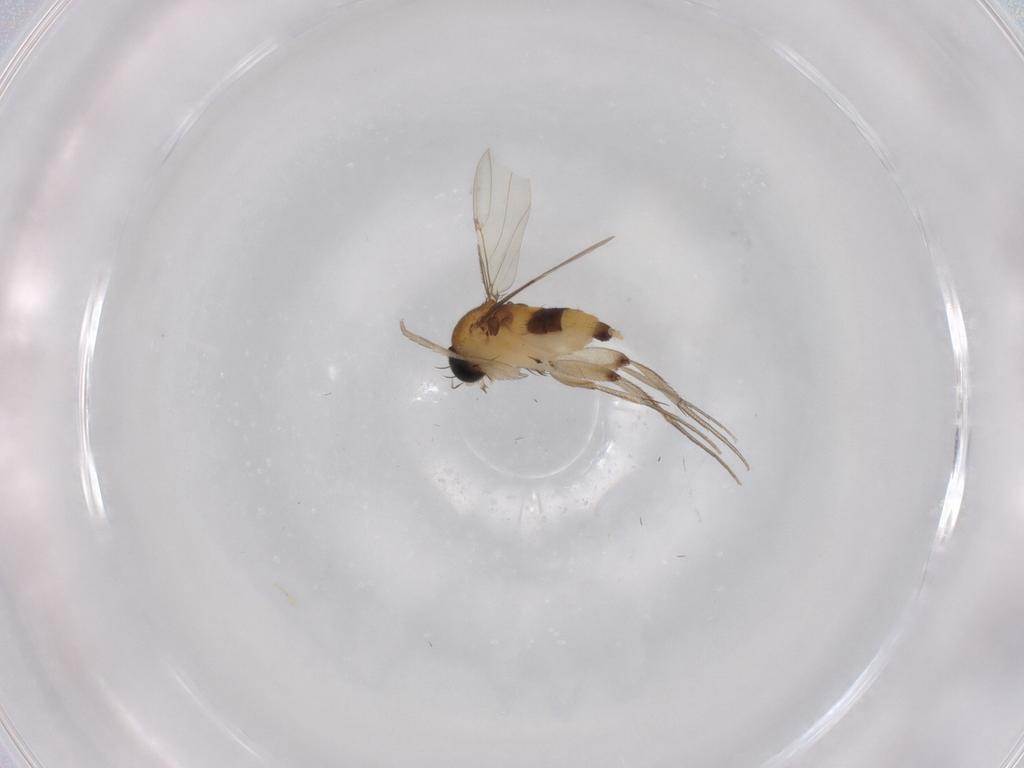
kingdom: Animalia
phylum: Arthropoda
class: Insecta
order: Diptera
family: Phoridae
